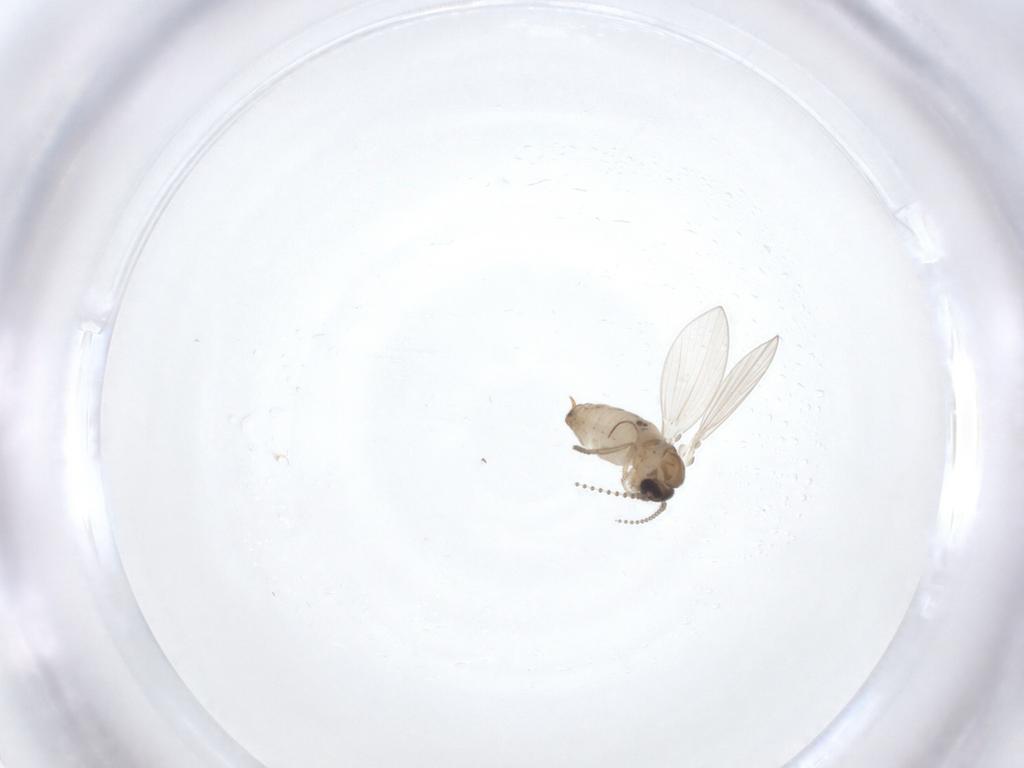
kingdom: Animalia
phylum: Arthropoda
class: Insecta
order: Diptera
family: Psychodidae
